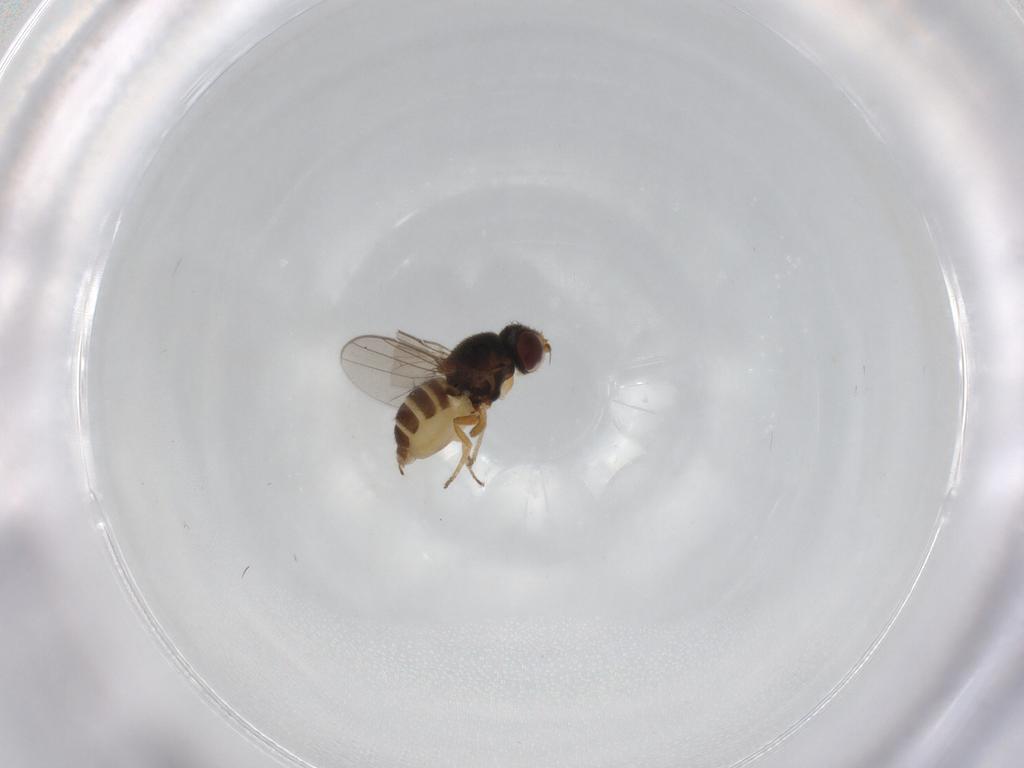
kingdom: Animalia
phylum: Arthropoda
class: Insecta
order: Diptera
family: Chloropidae
